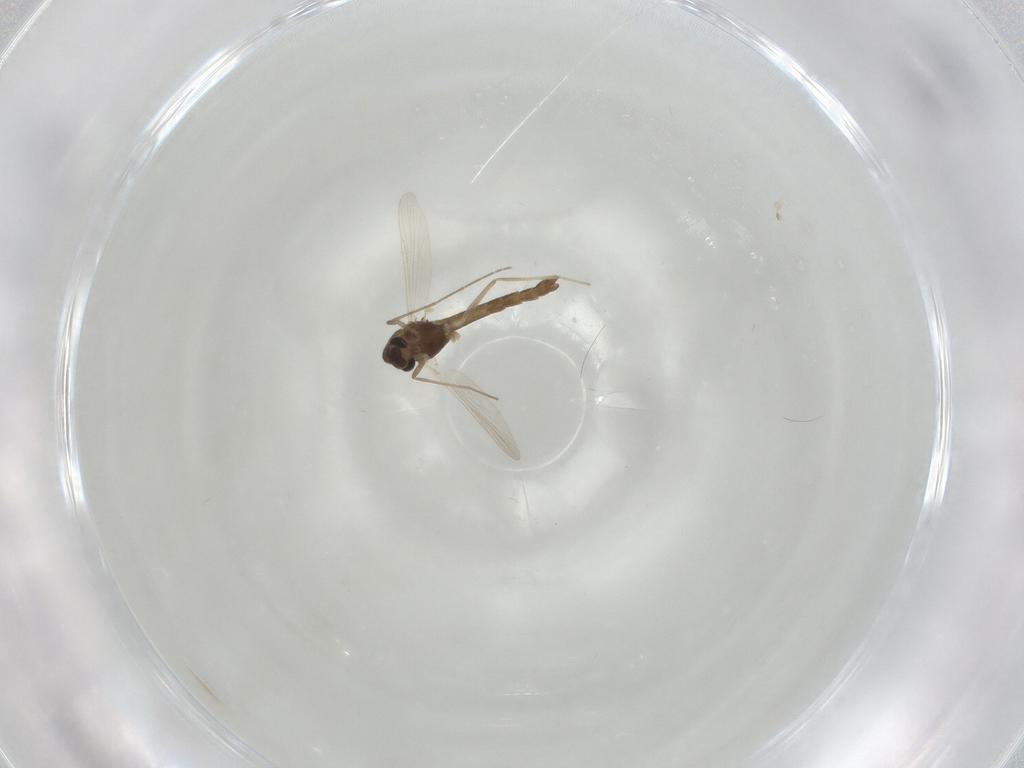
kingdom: Animalia
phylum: Arthropoda
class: Insecta
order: Diptera
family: Chironomidae
